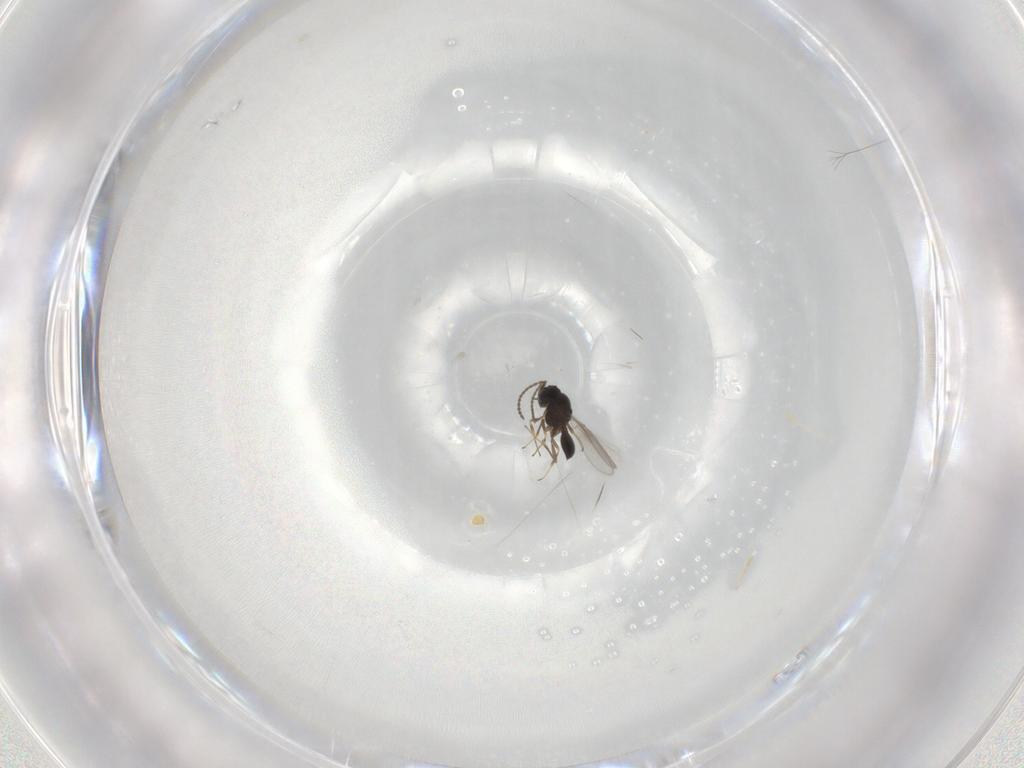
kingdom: Animalia
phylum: Arthropoda
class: Insecta
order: Hymenoptera
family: Scelionidae
